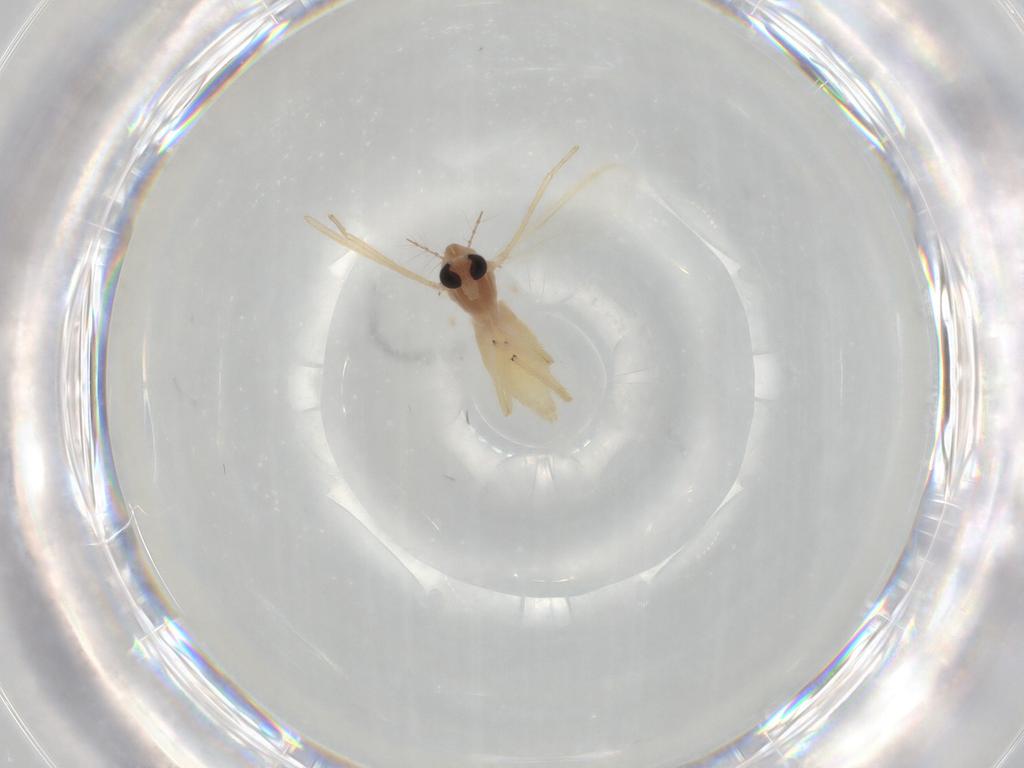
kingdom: Animalia
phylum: Arthropoda
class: Insecta
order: Diptera
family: Chironomidae
